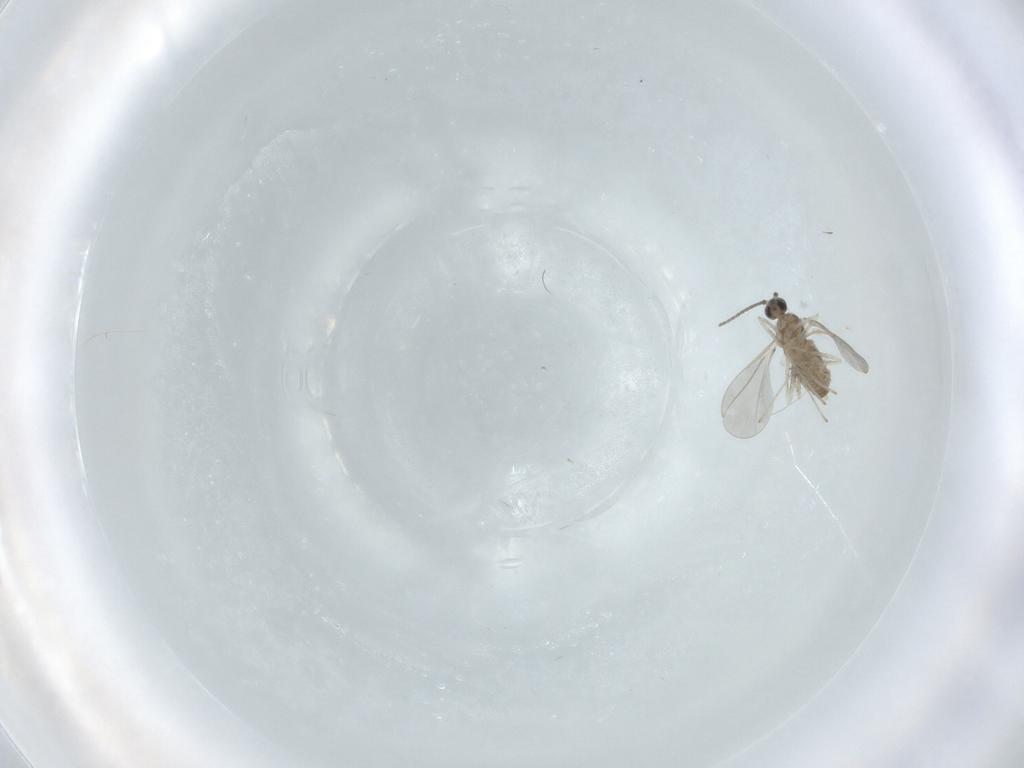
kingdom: Animalia
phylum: Arthropoda
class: Insecta
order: Diptera
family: Cecidomyiidae
